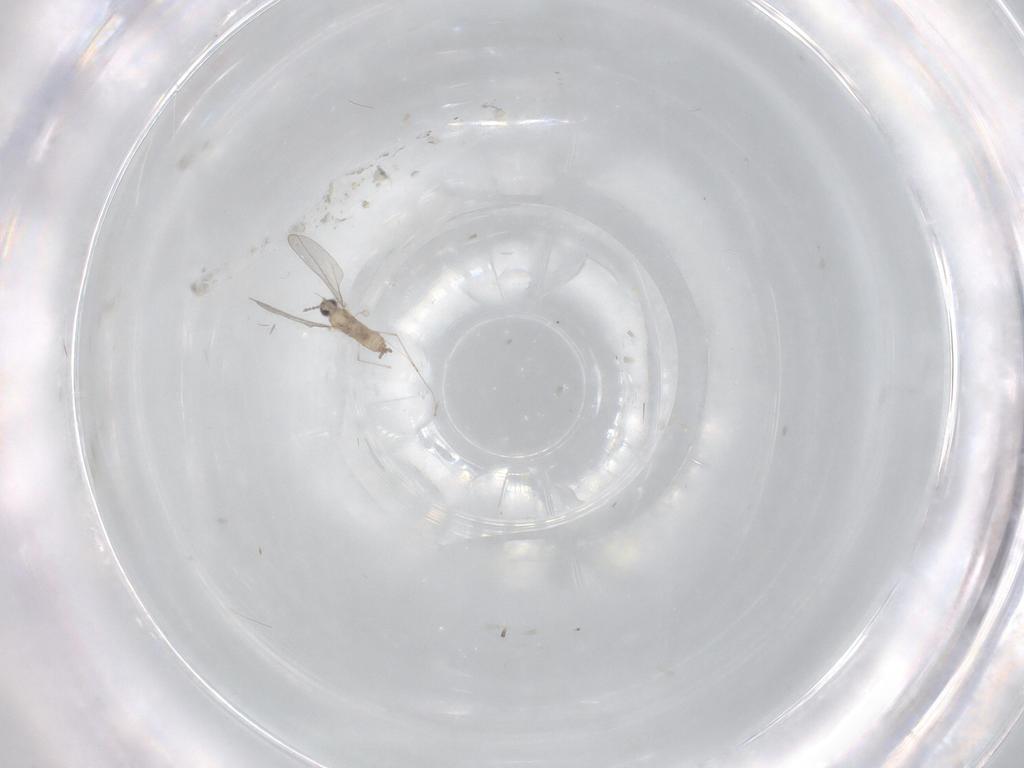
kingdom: Animalia
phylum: Arthropoda
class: Insecta
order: Diptera
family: Cecidomyiidae
